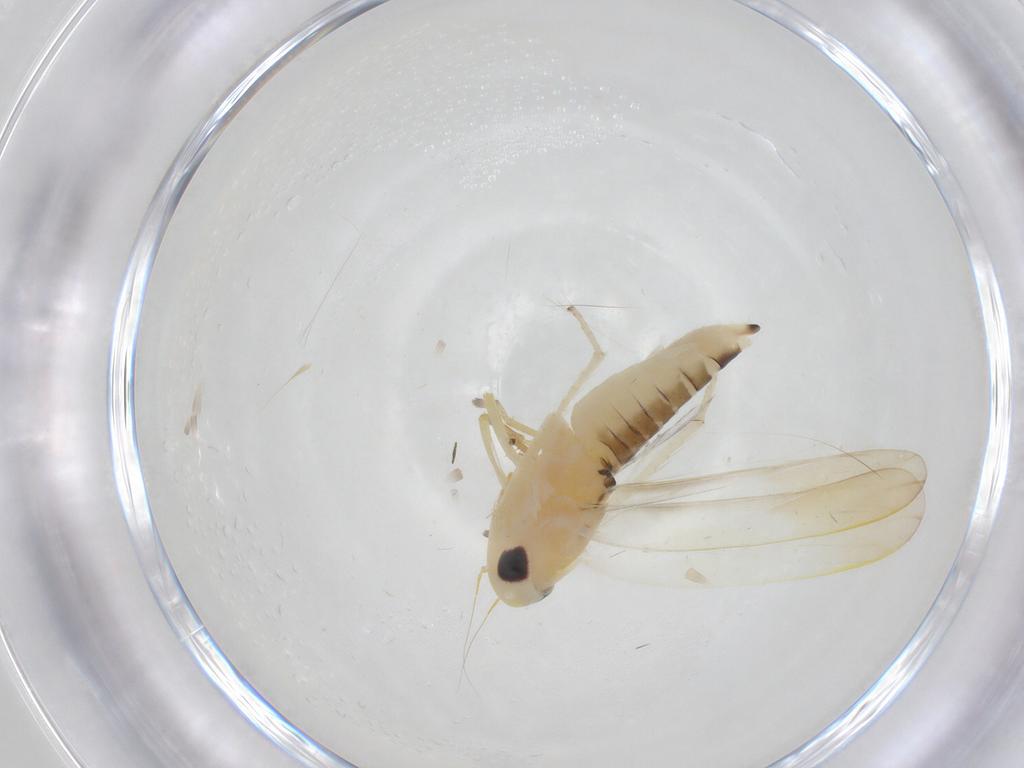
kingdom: Animalia
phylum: Arthropoda
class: Insecta
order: Hemiptera
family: Cicadellidae
